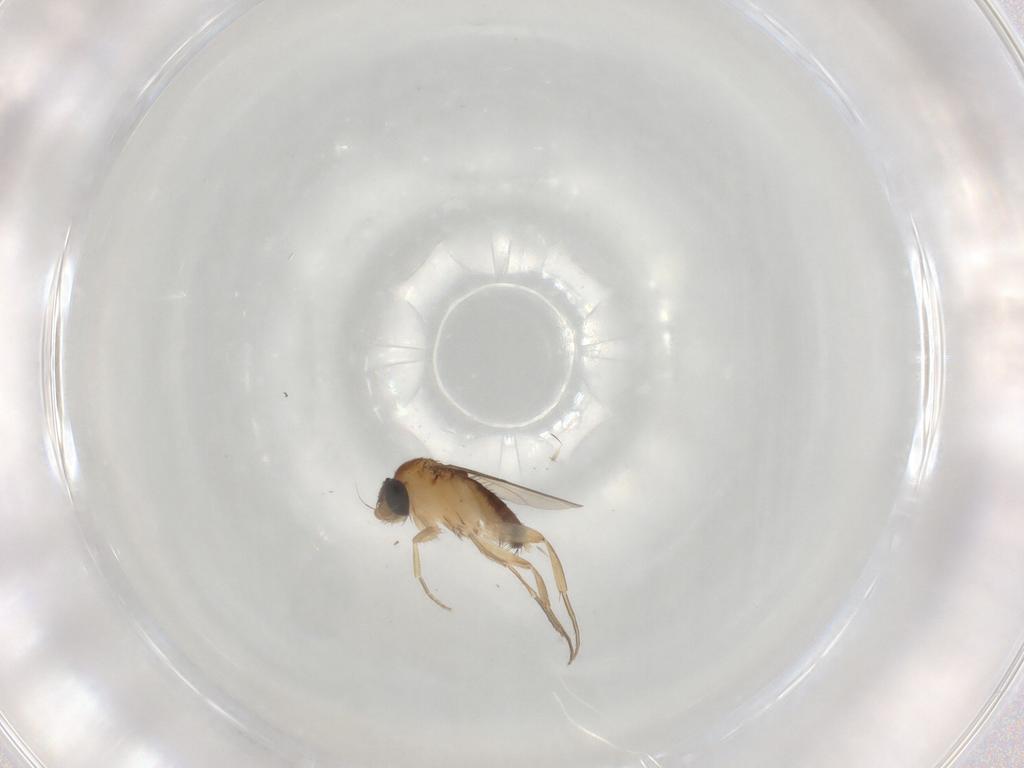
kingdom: Animalia
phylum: Arthropoda
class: Insecta
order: Diptera
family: Phoridae
